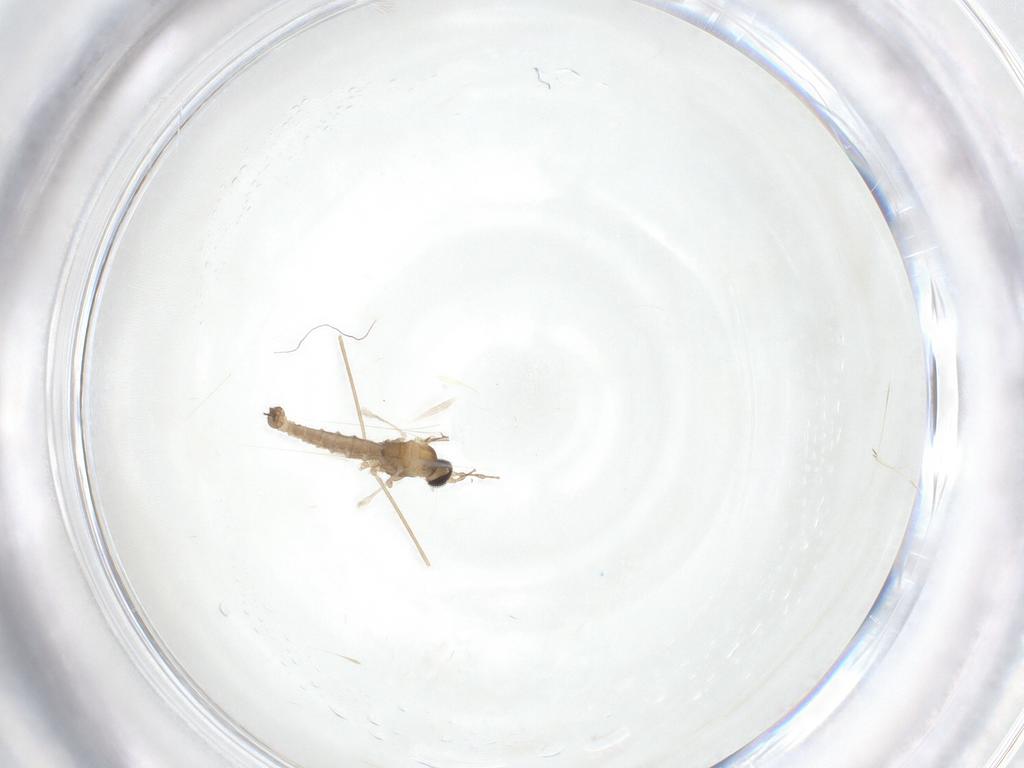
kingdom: Animalia
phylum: Arthropoda
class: Insecta
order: Diptera
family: Cecidomyiidae
